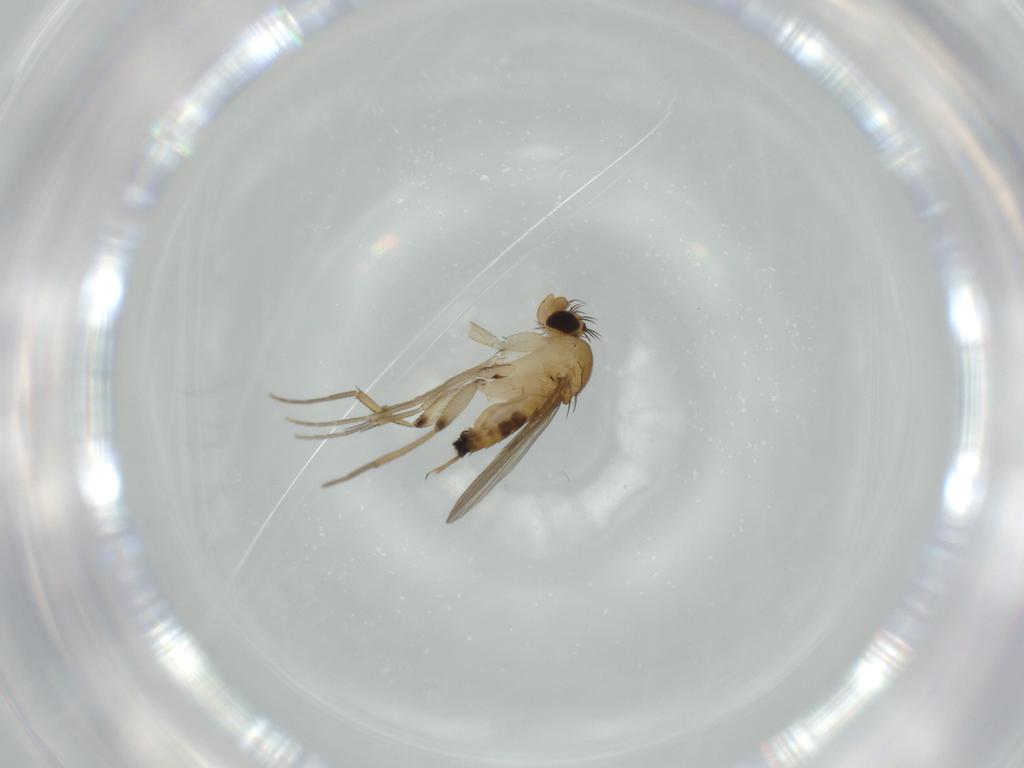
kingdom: Animalia
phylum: Arthropoda
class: Insecta
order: Diptera
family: Phoridae
